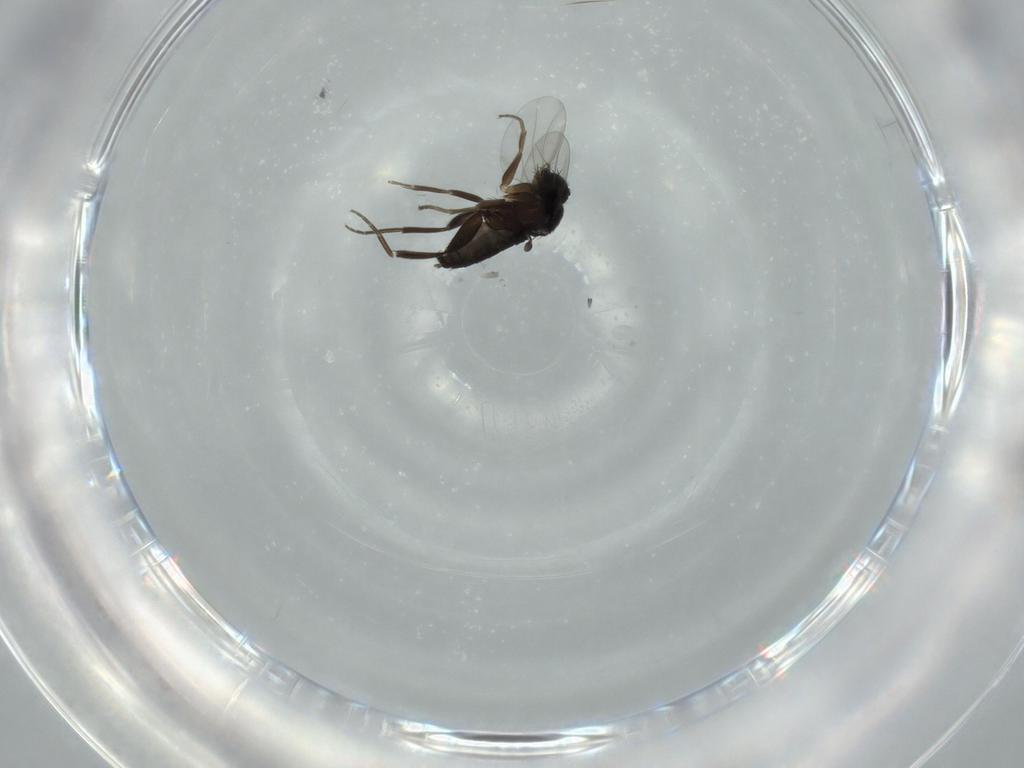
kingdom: Animalia
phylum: Arthropoda
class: Insecta
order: Diptera
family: Phoridae
